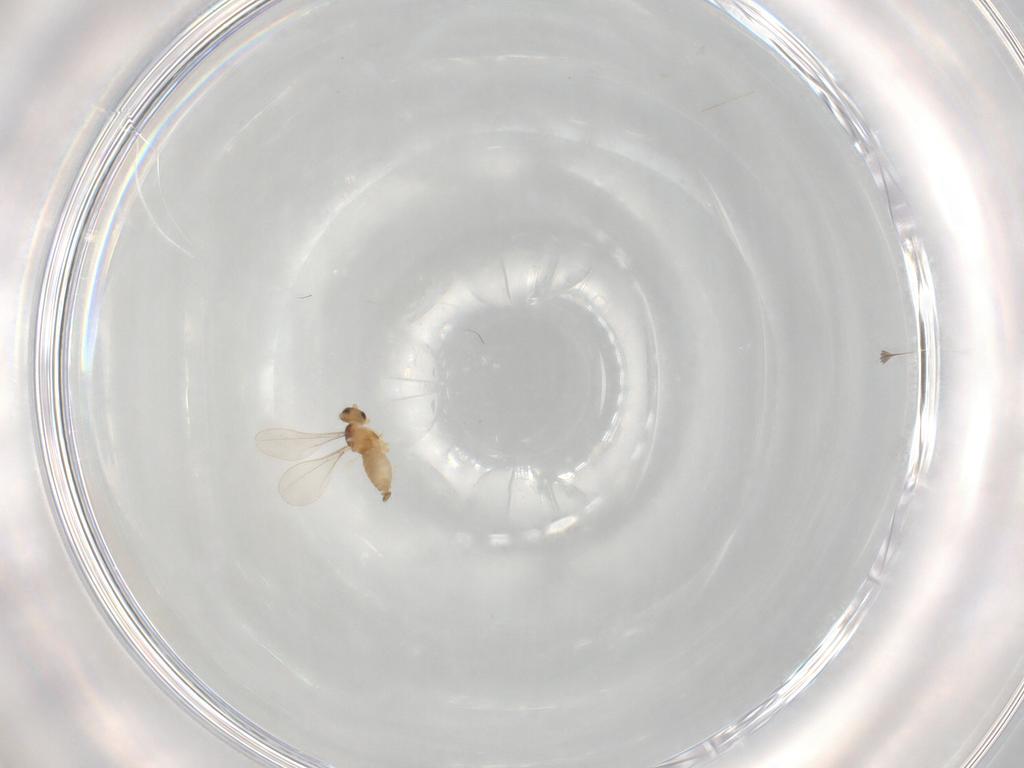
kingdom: Animalia
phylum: Arthropoda
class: Insecta
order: Diptera
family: Cecidomyiidae
